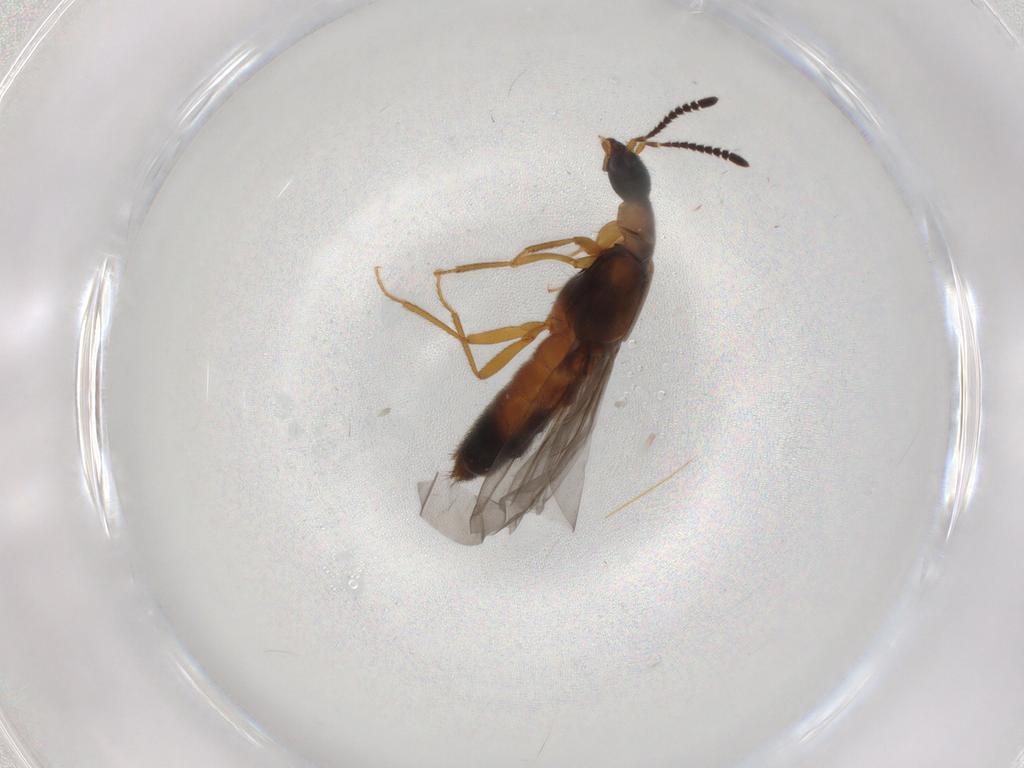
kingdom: Animalia
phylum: Arthropoda
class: Insecta
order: Coleoptera
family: Staphylinidae
